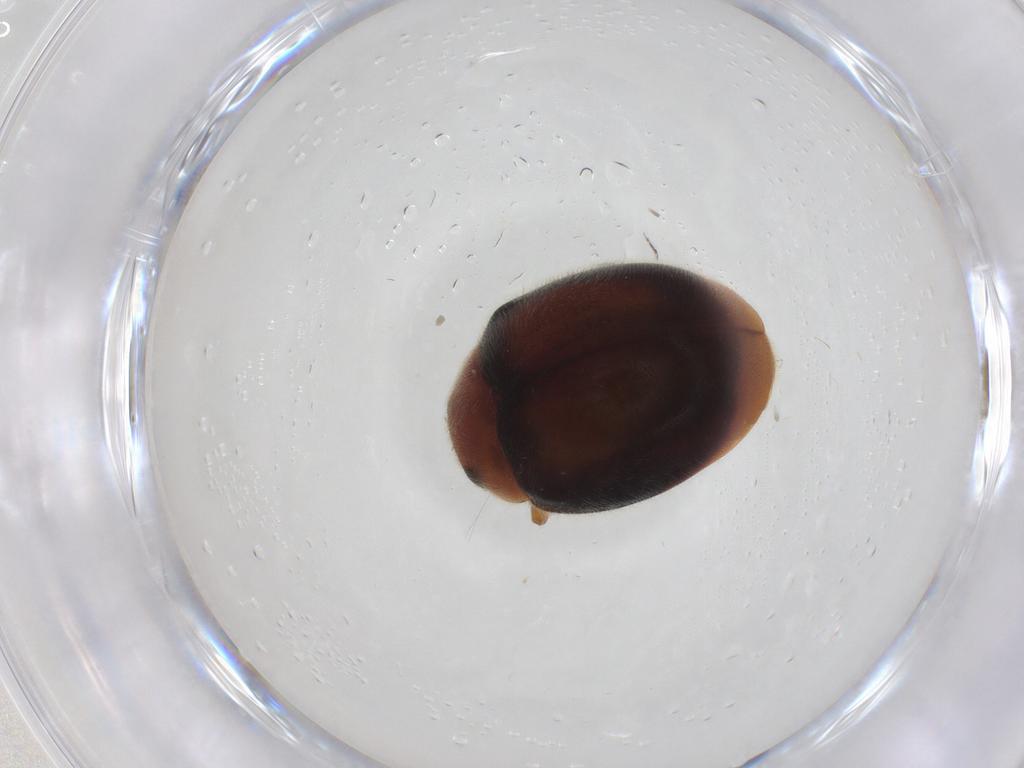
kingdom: Animalia
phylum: Arthropoda
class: Insecta
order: Coleoptera
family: Coccinellidae
